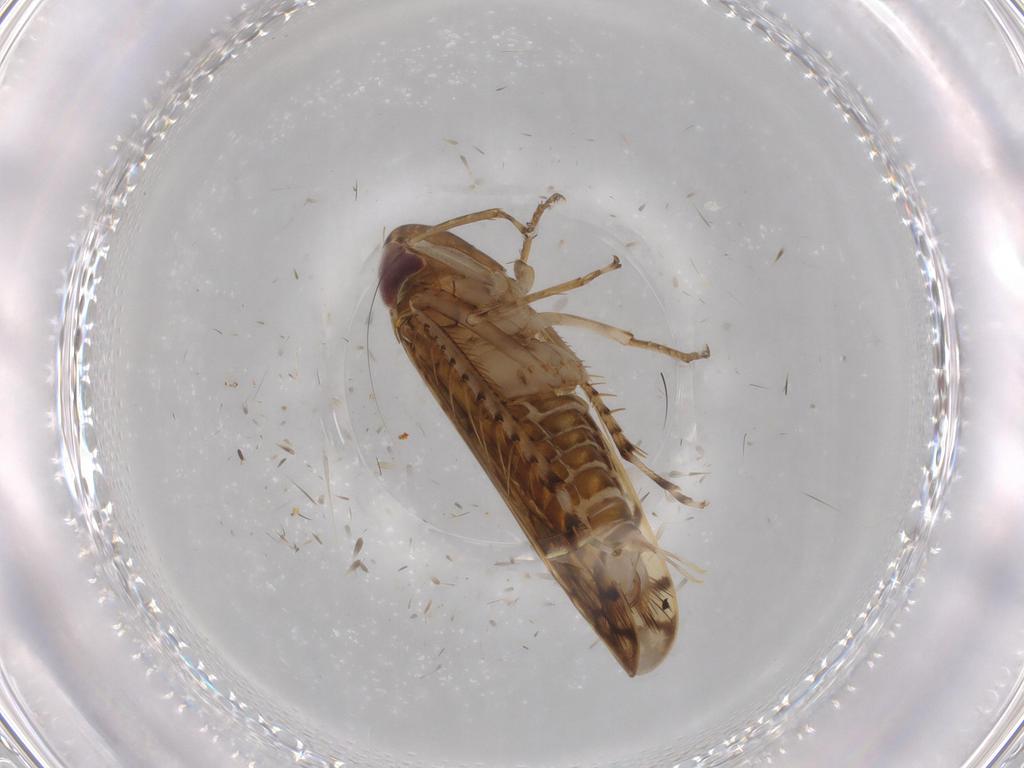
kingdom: Animalia
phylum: Arthropoda
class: Insecta
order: Hemiptera
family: Cicadellidae
